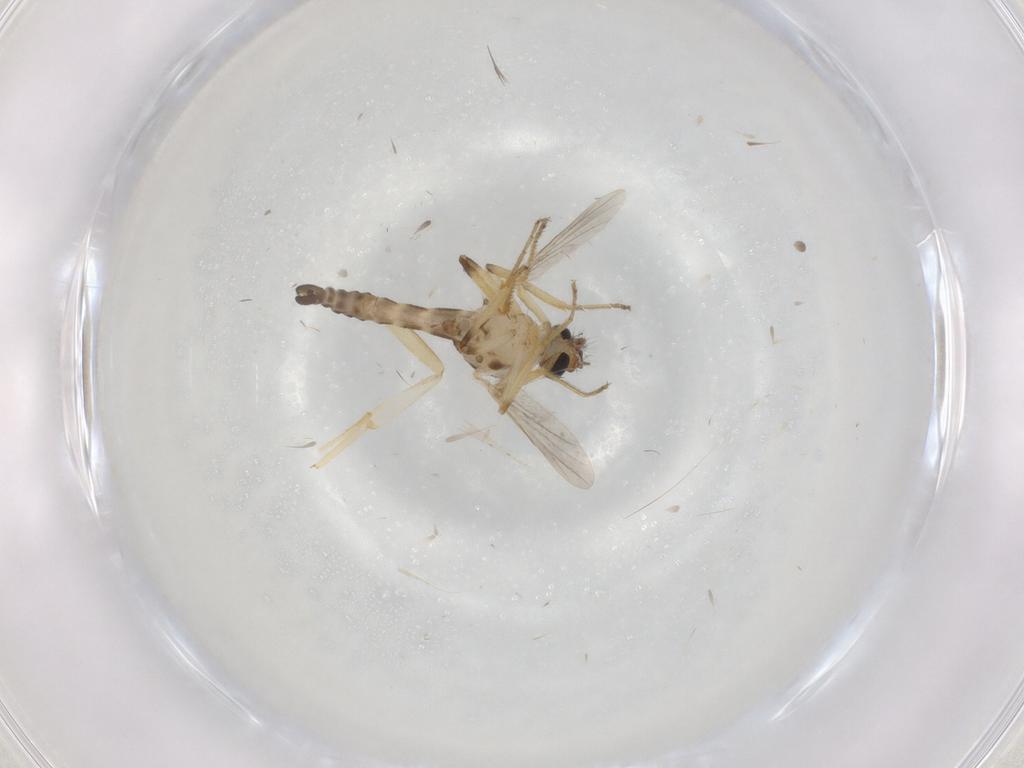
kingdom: Animalia
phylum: Arthropoda
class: Insecta
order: Diptera
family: Ceratopogonidae
